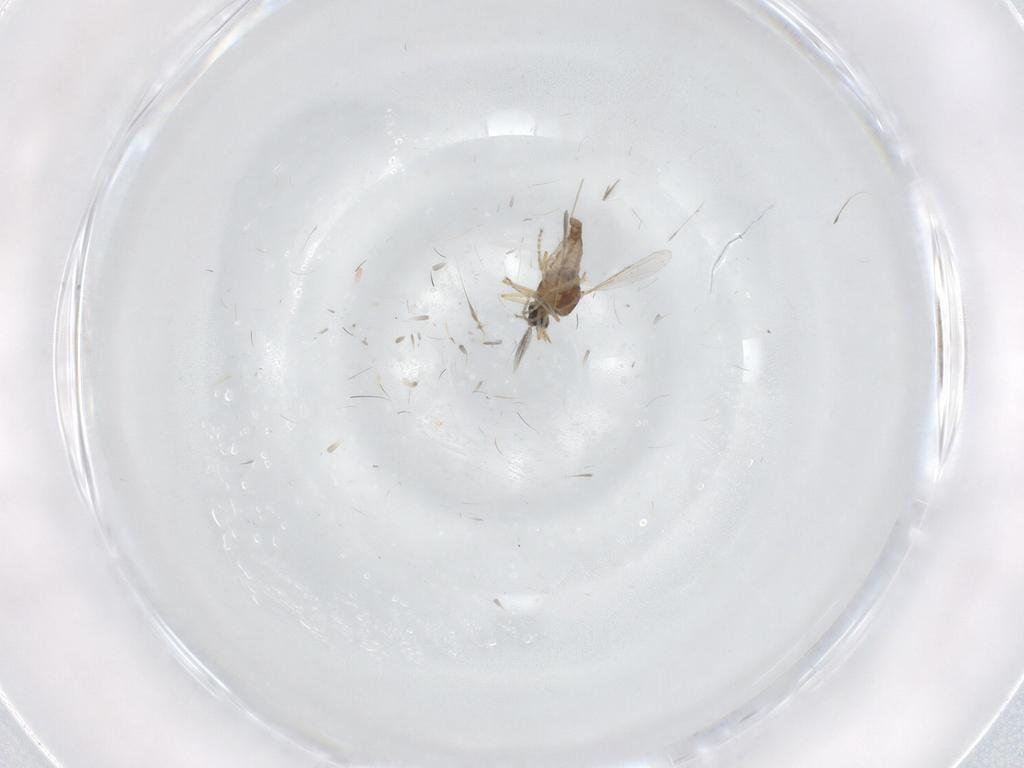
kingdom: Animalia
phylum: Arthropoda
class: Insecta
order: Diptera
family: Ceratopogonidae
